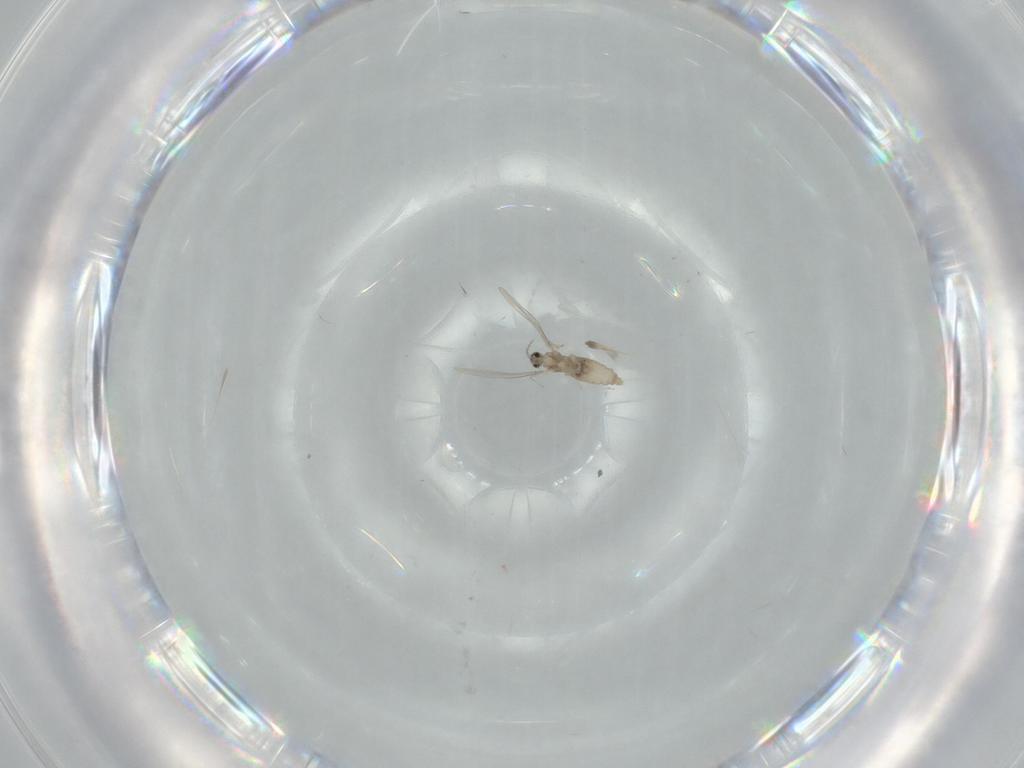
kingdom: Animalia
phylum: Arthropoda
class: Insecta
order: Diptera
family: Cecidomyiidae
